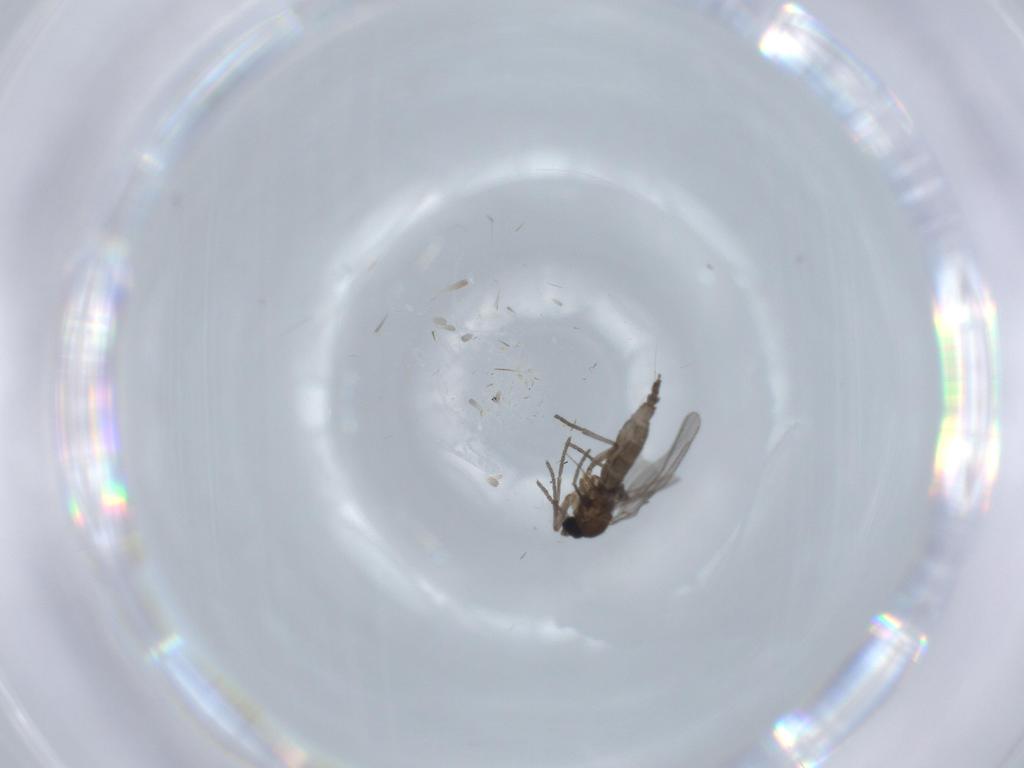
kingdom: Animalia
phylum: Arthropoda
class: Insecta
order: Diptera
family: Dolichopodidae
